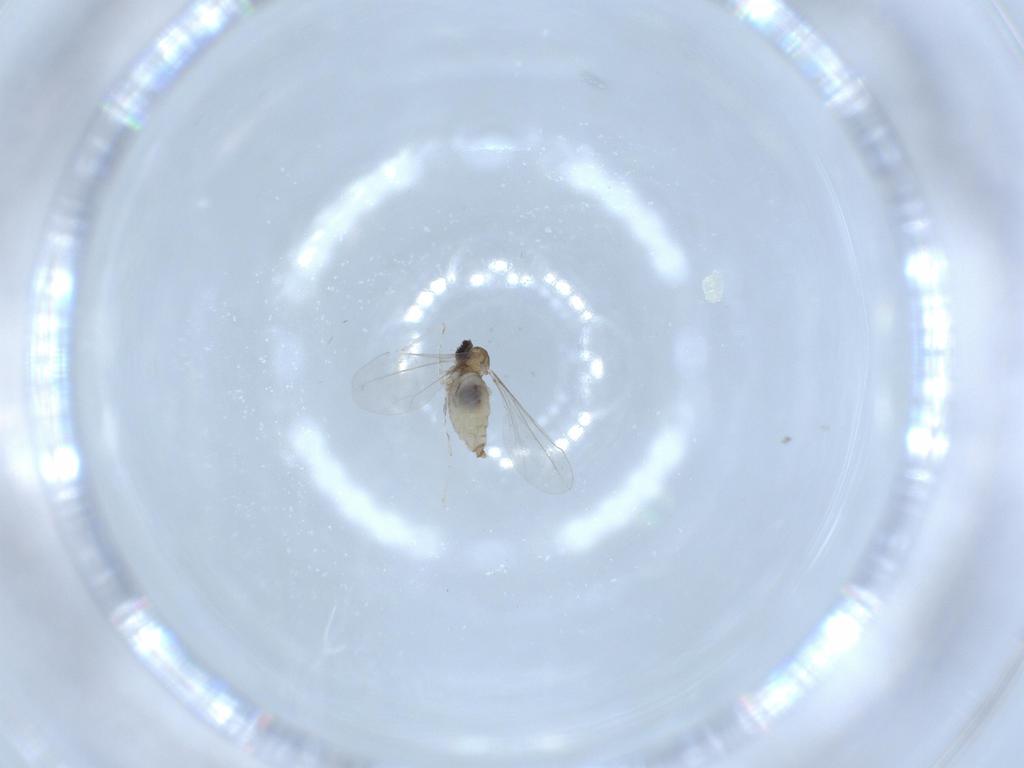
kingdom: Animalia
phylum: Arthropoda
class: Insecta
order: Diptera
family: Cecidomyiidae
